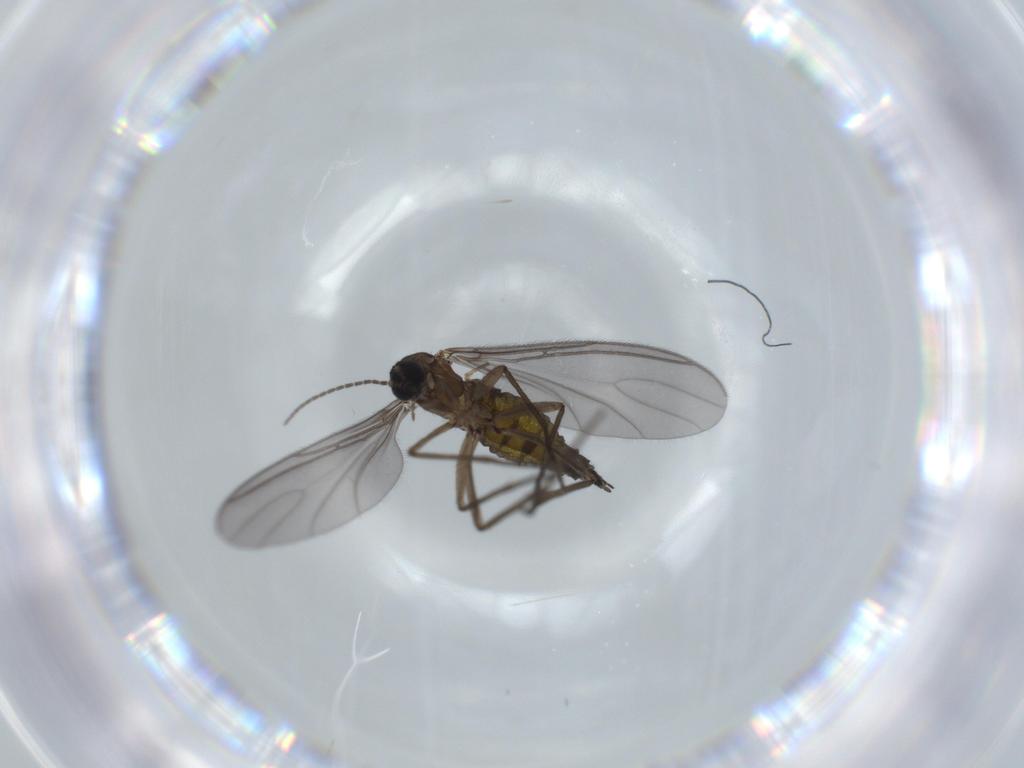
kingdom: Animalia
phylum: Arthropoda
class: Insecta
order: Diptera
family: Sciaridae
